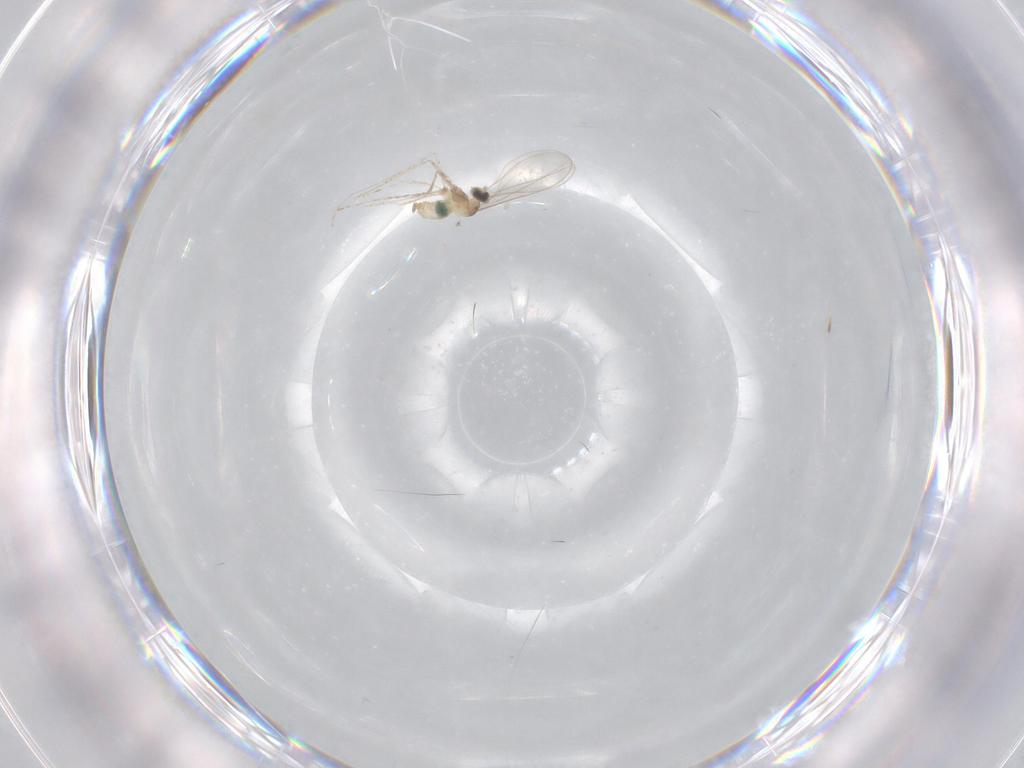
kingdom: Animalia
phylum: Arthropoda
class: Insecta
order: Diptera
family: Cecidomyiidae
